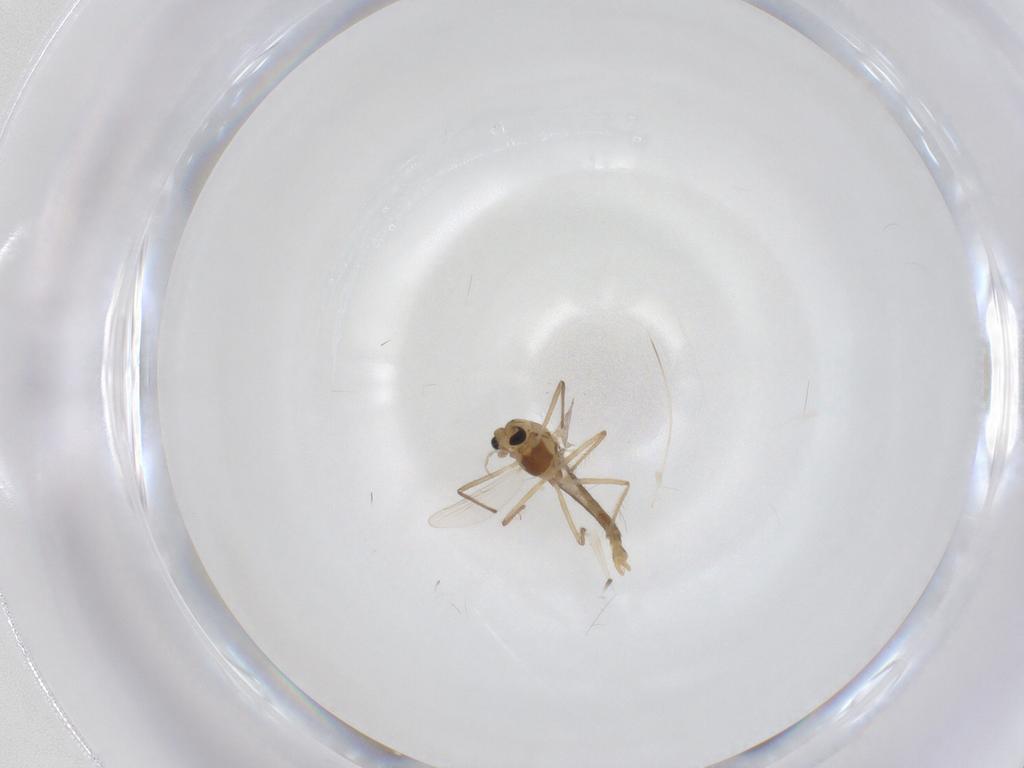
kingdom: Animalia
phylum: Arthropoda
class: Insecta
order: Diptera
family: Chironomidae
